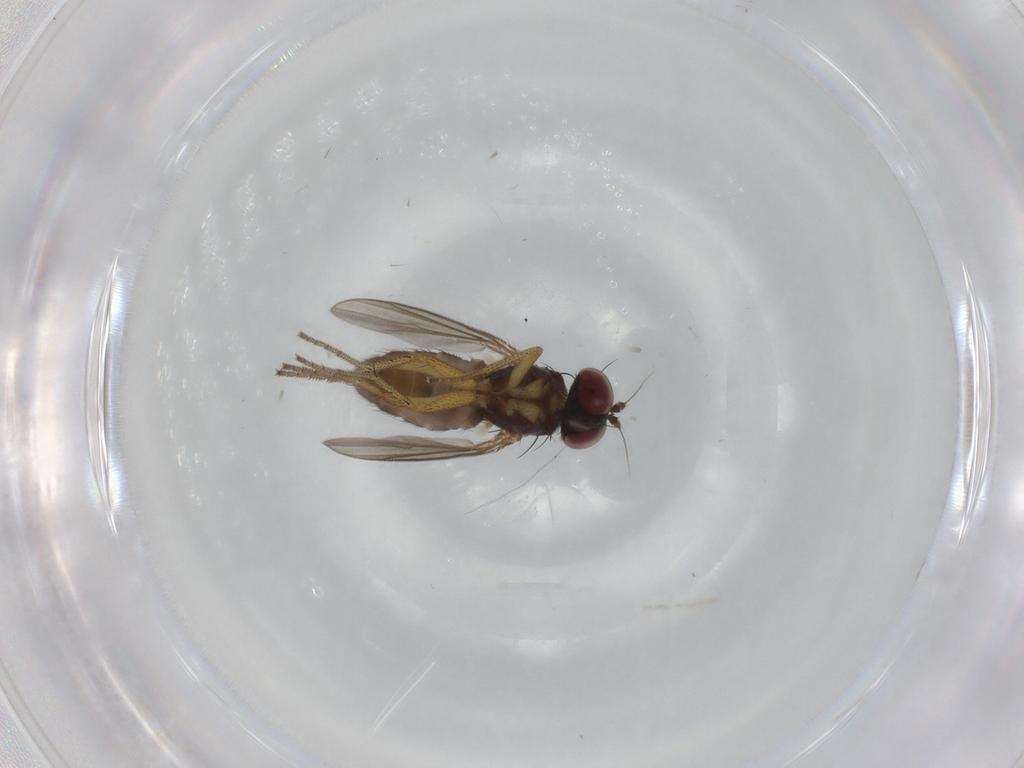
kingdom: Animalia
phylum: Arthropoda
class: Insecta
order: Diptera
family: Dolichopodidae
